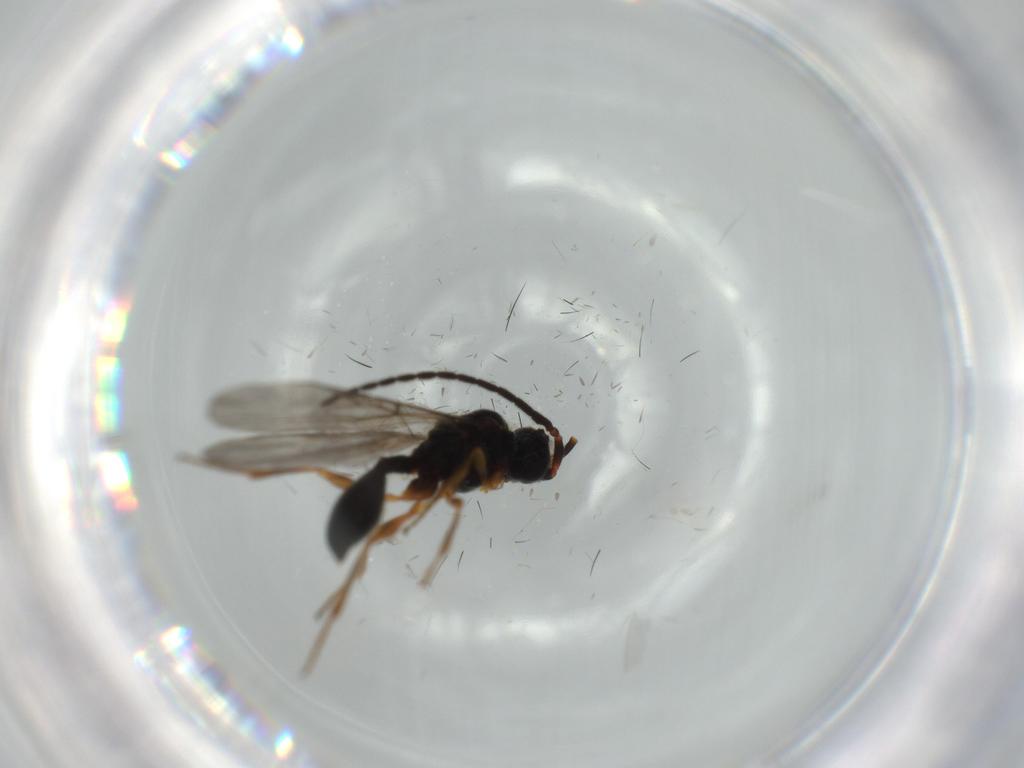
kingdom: Animalia
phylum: Arthropoda
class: Insecta
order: Hymenoptera
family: Diapriidae
